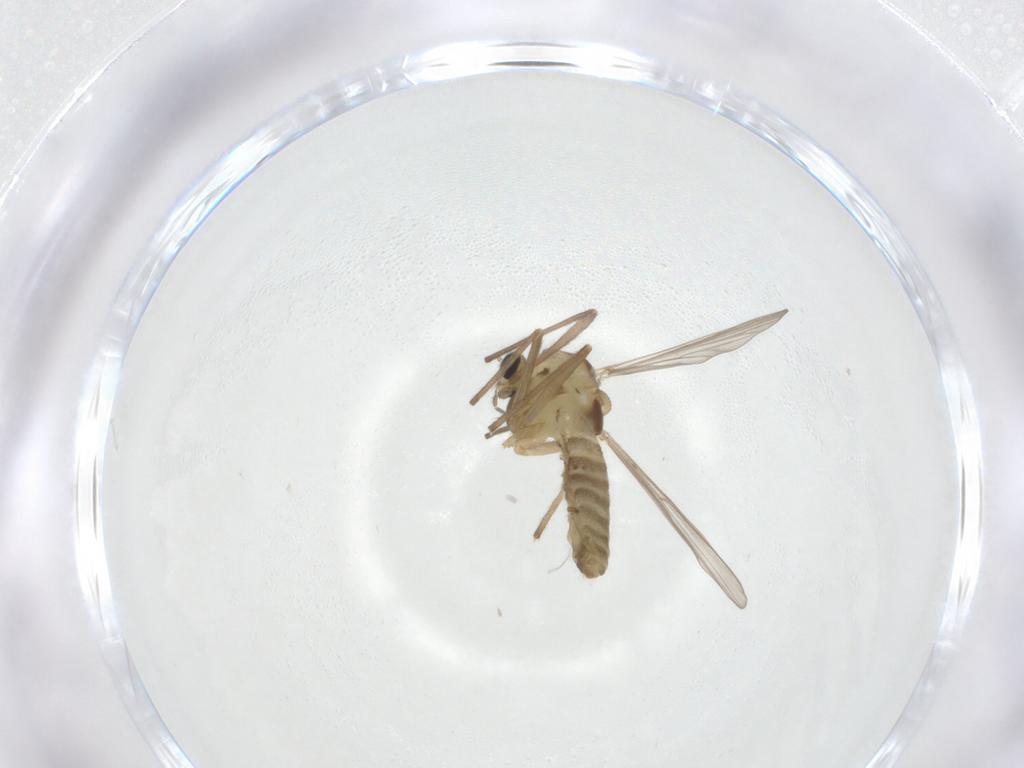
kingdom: Animalia
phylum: Arthropoda
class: Insecta
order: Diptera
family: Chironomidae
